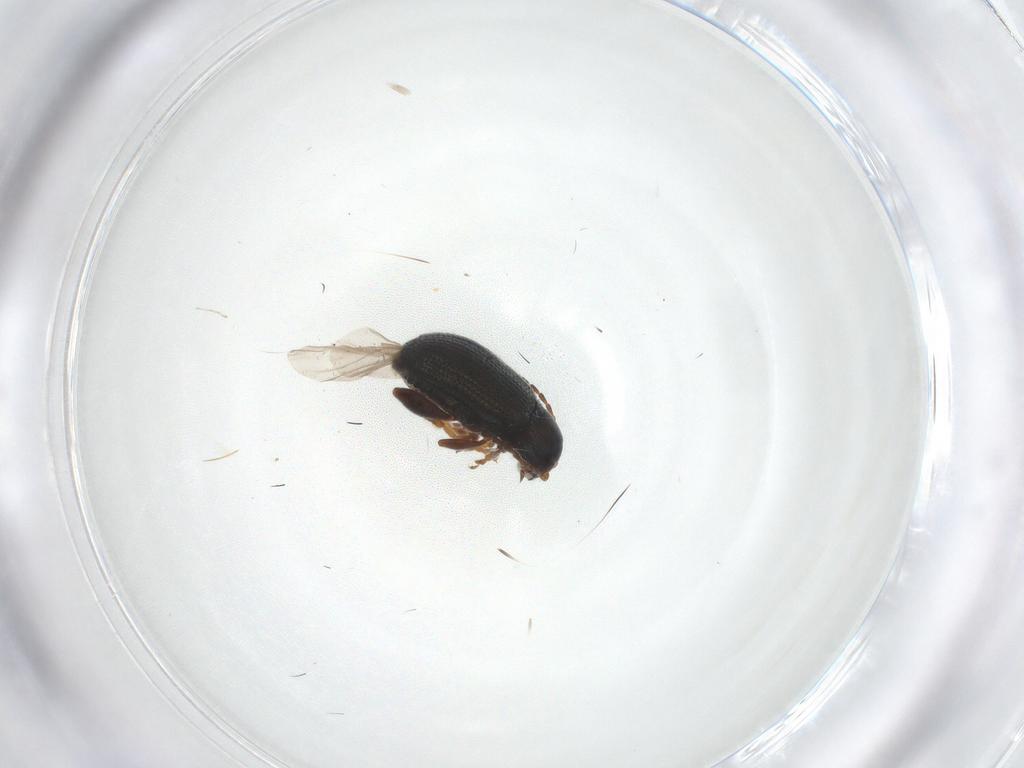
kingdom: Animalia
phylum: Arthropoda
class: Insecta
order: Coleoptera
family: Chrysomelidae
